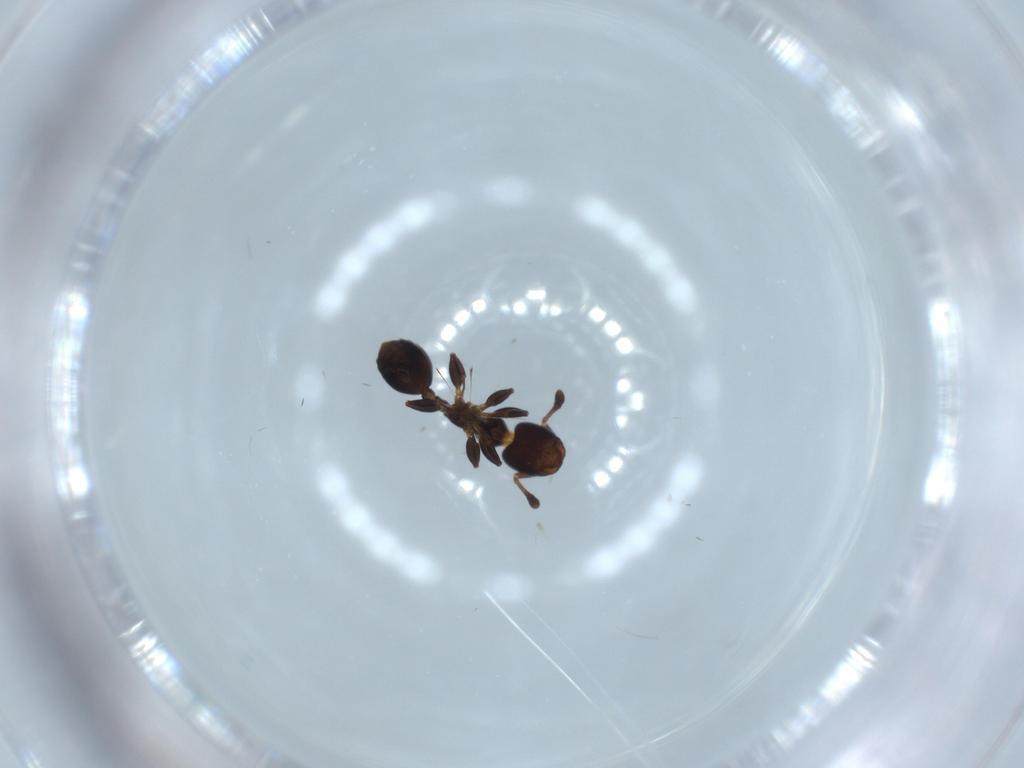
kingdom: Animalia
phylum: Arthropoda
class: Insecta
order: Hymenoptera
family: Formicidae
